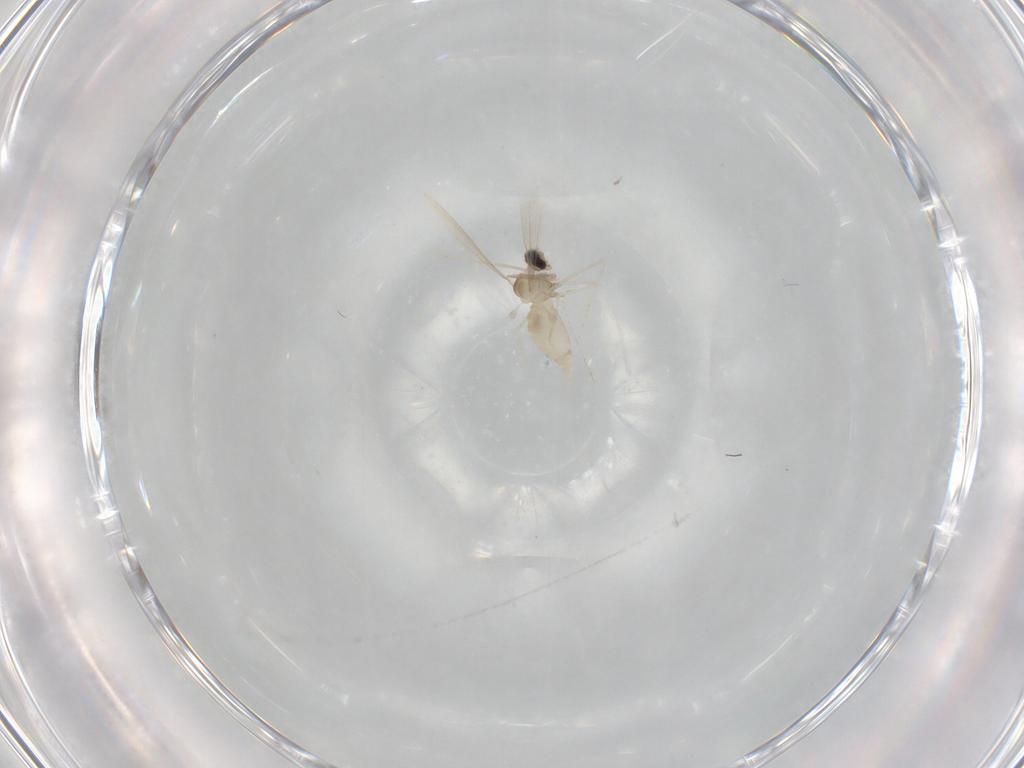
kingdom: Animalia
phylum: Arthropoda
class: Insecta
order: Diptera
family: Cecidomyiidae
